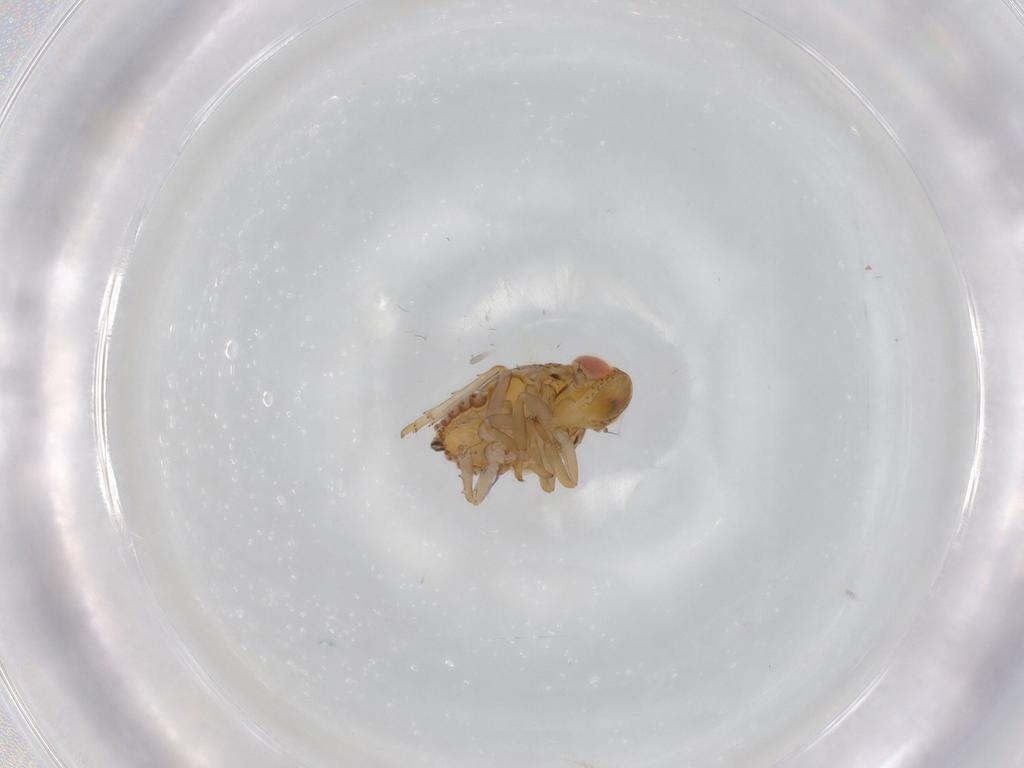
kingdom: Animalia
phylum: Arthropoda
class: Insecta
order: Hemiptera
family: Issidae
